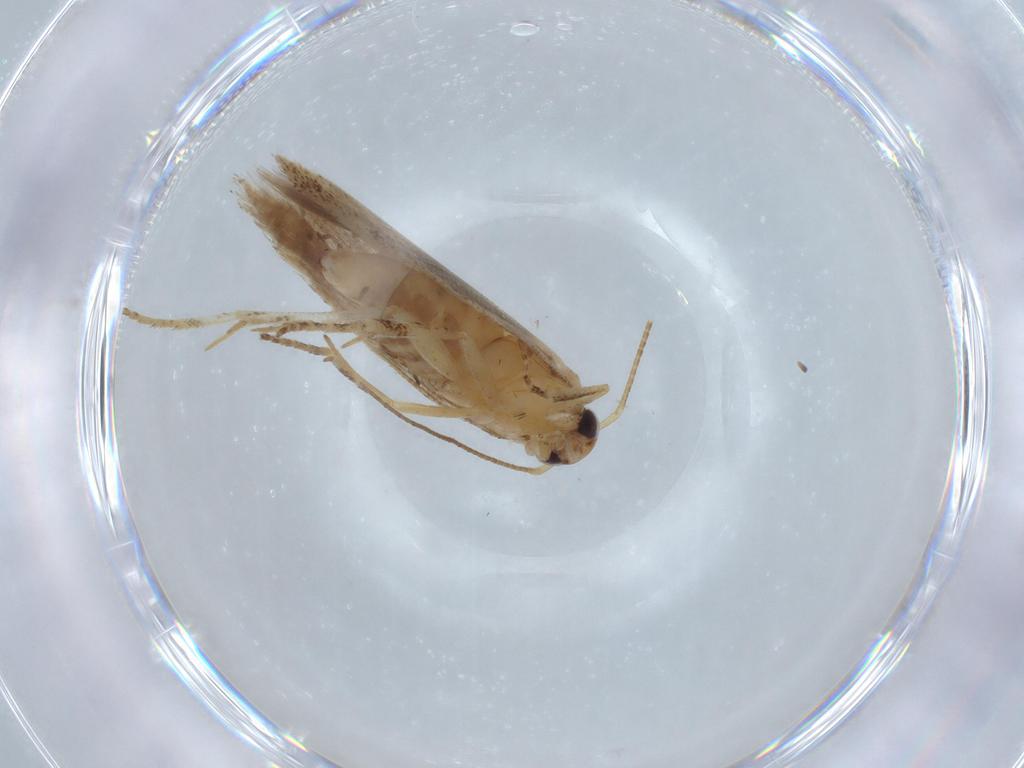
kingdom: Animalia
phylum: Arthropoda
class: Insecta
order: Lepidoptera
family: Gelechiidae
